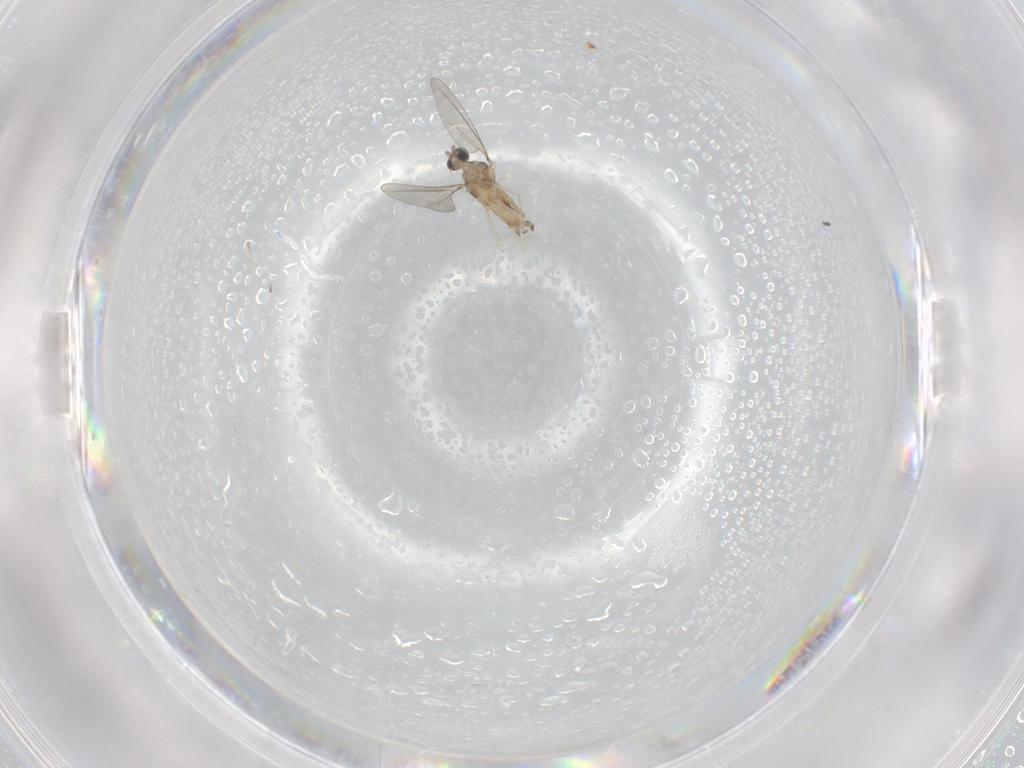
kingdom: Animalia
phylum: Arthropoda
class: Insecta
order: Diptera
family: Cecidomyiidae
